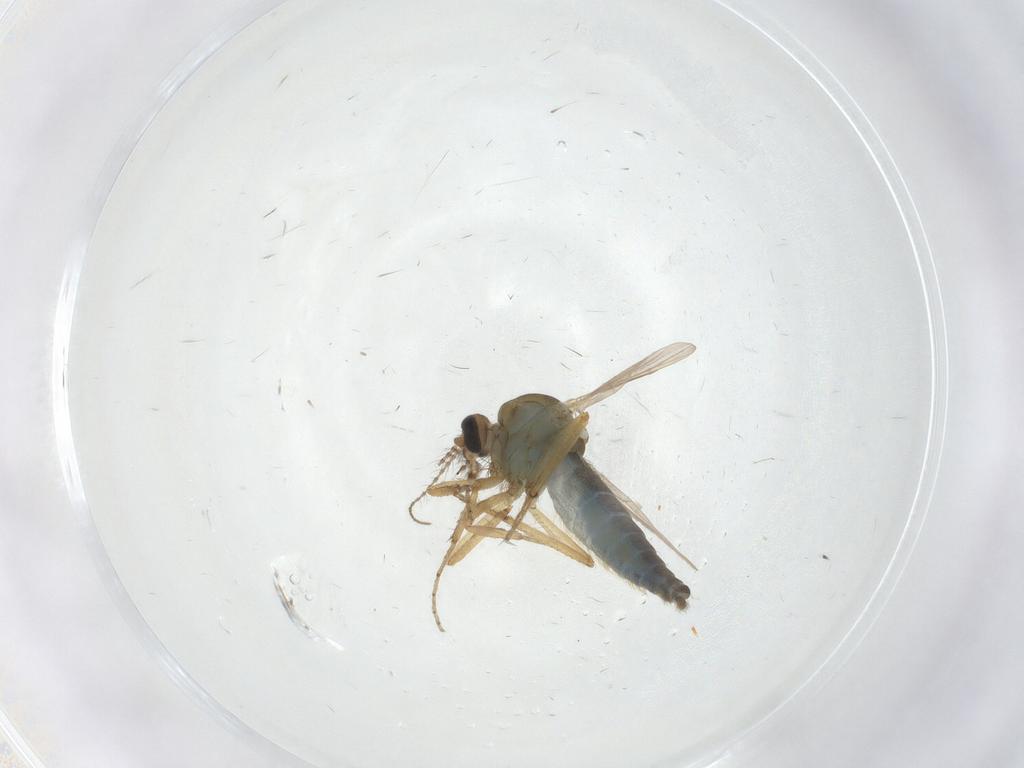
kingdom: Animalia
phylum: Arthropoda
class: Insecta
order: Diptera
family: Ceratopogonidae
